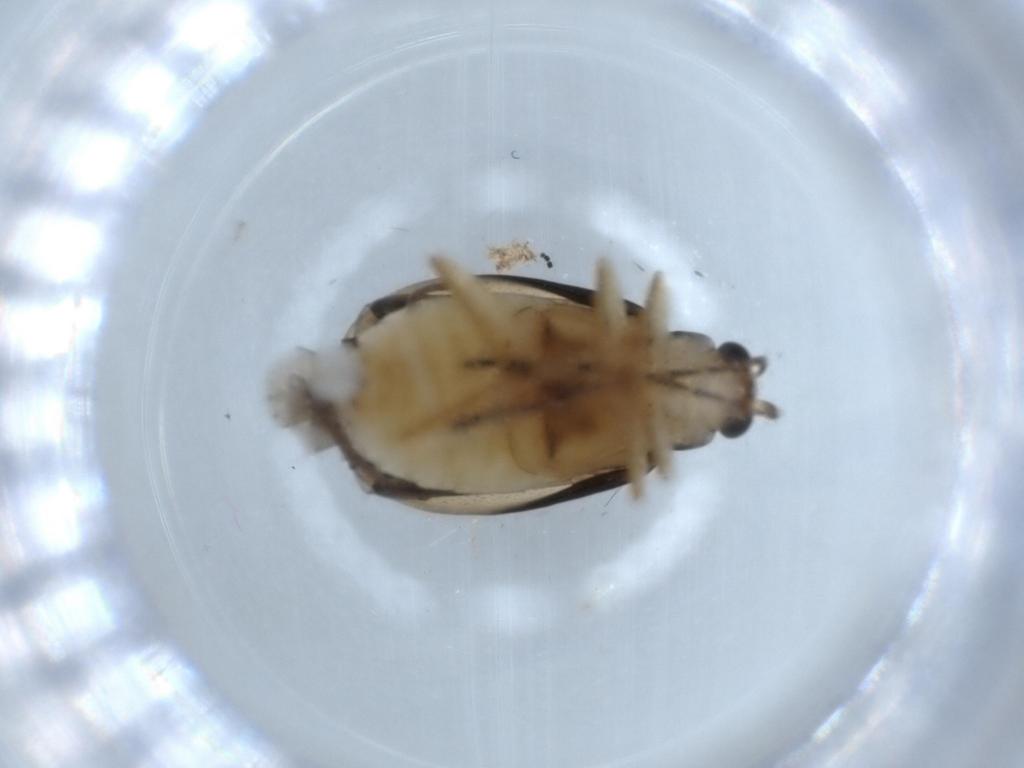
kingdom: Animalia
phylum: Arthropoda
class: Insecta
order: Coleoptera
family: Chrysomelidae
